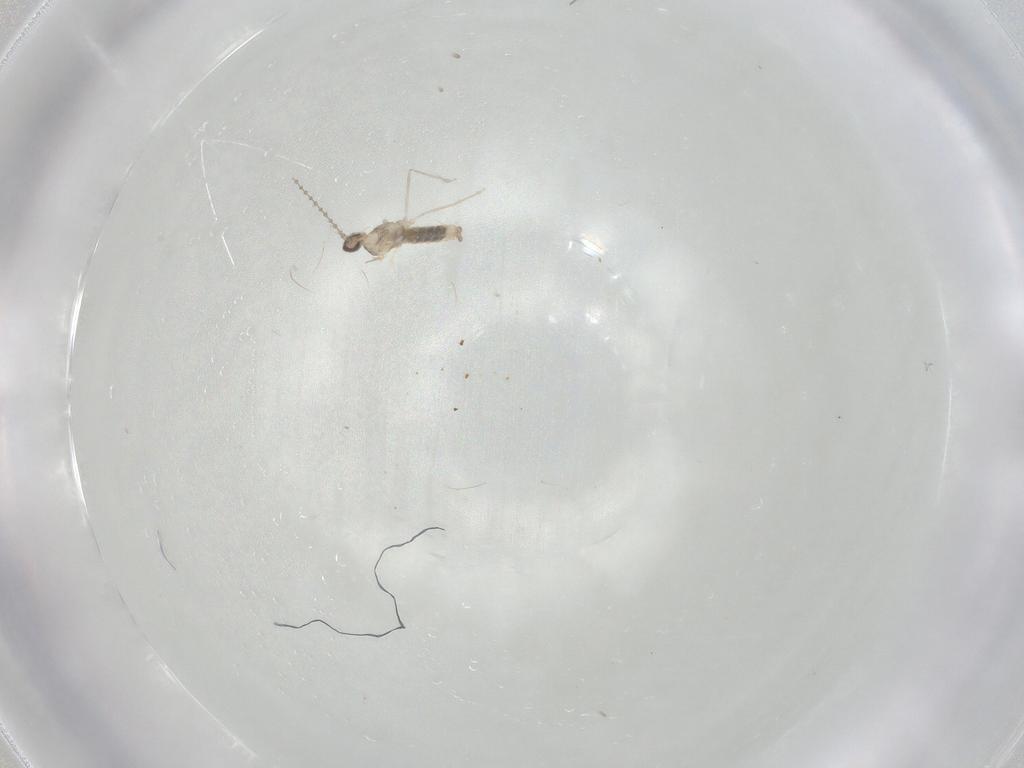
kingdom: Animalia
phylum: Arthropoda
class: Insecta
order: Diptera
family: Cecidomyiidae
